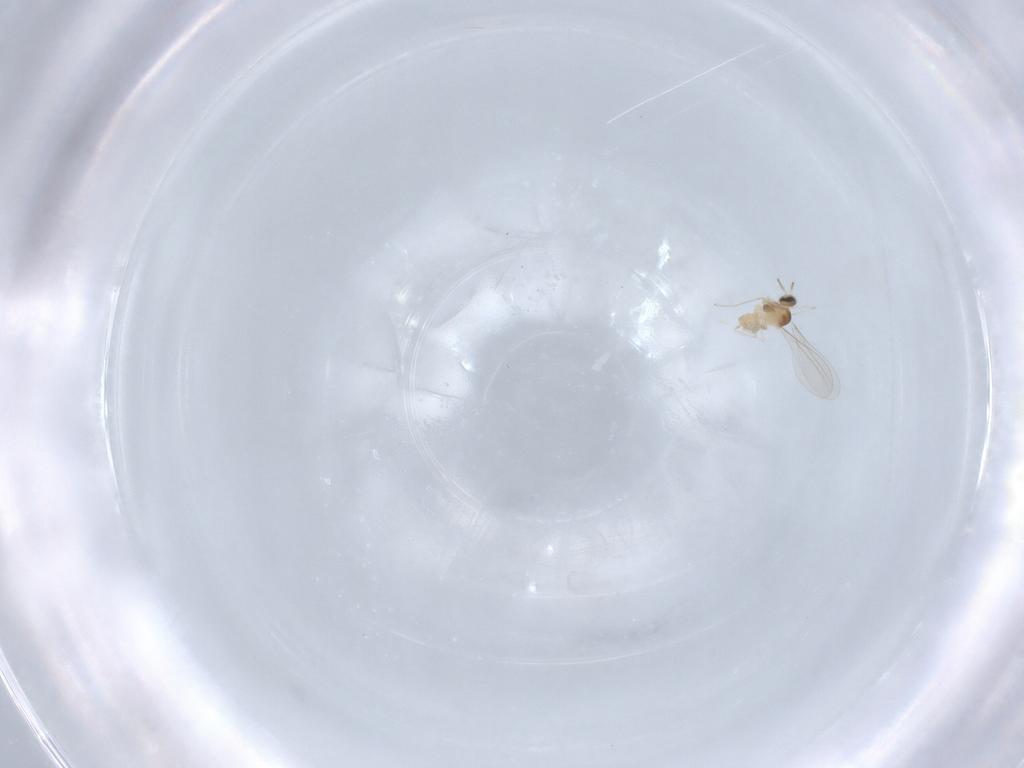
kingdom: Animalia
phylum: Arthropoda
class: Insecta
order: Diptera
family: Cecidomyiidae
